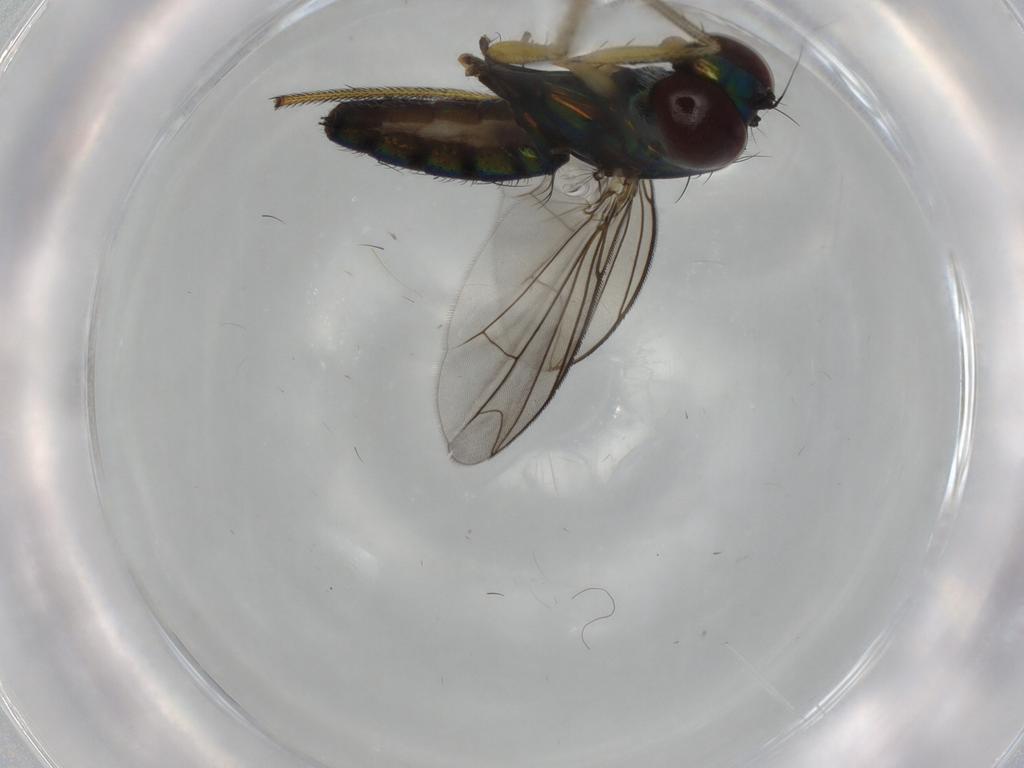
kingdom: Animalia
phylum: Arthropoda
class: Insecta
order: Diptera
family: Dolichopodidae
